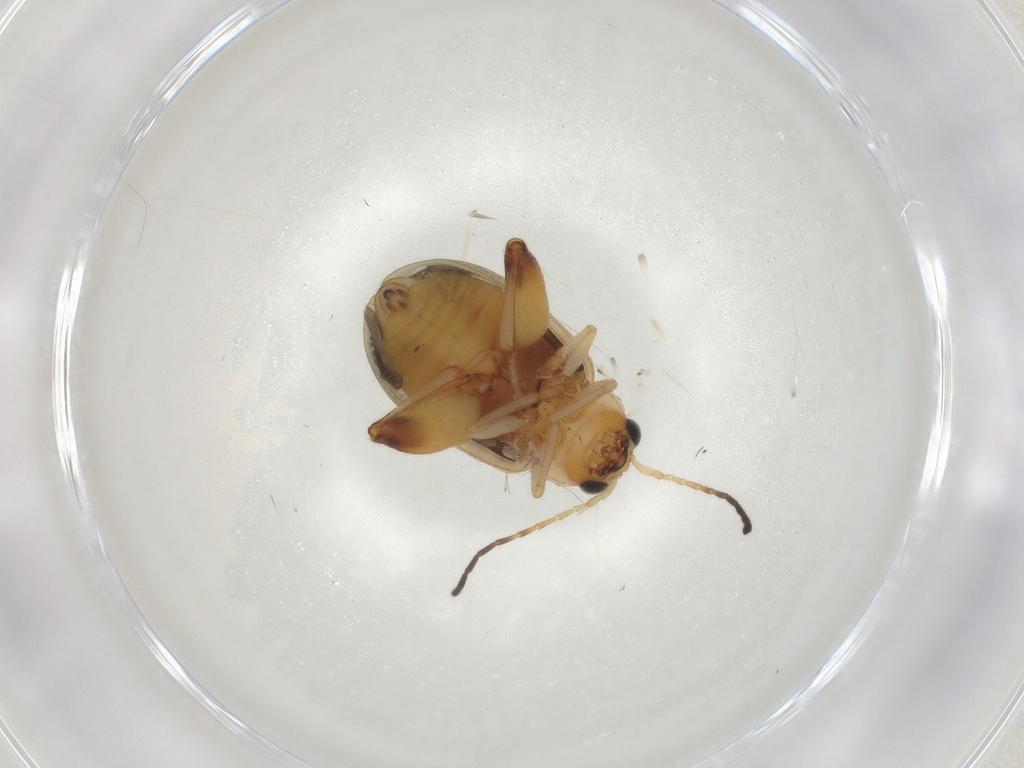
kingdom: Animalia
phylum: Arthropoda
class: Insecta
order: Coleoptera
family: Chrysomelidae
